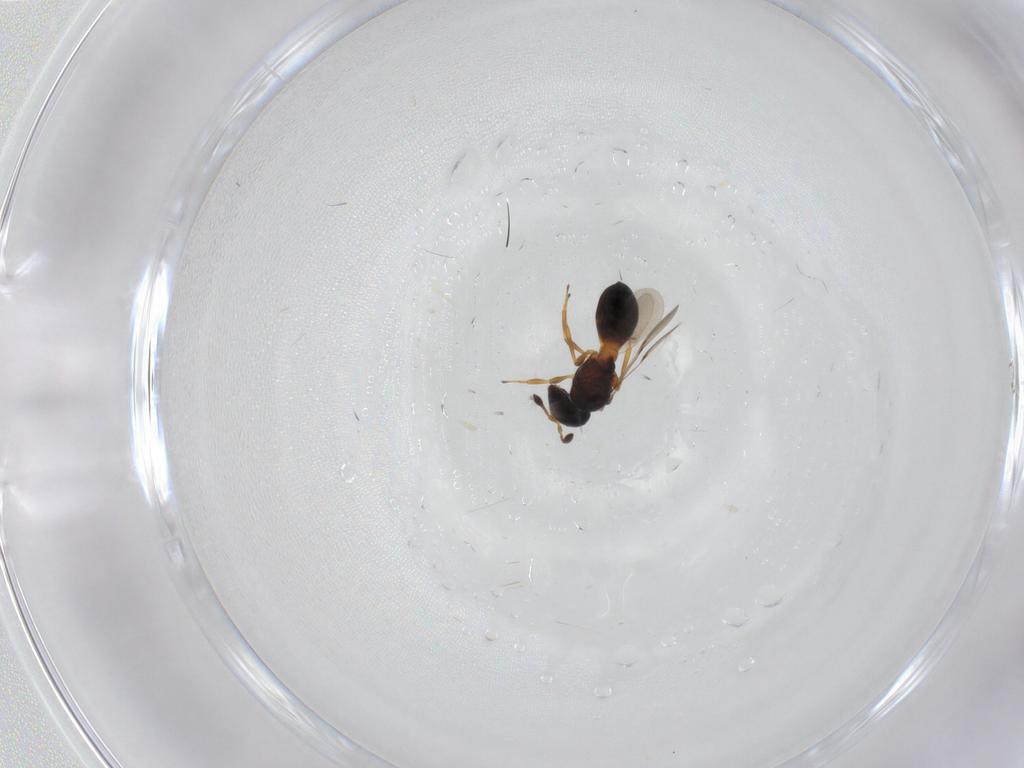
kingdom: Animalia
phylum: Arthropoda
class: Insecta
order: Hymenoptera
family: Scelionidae
